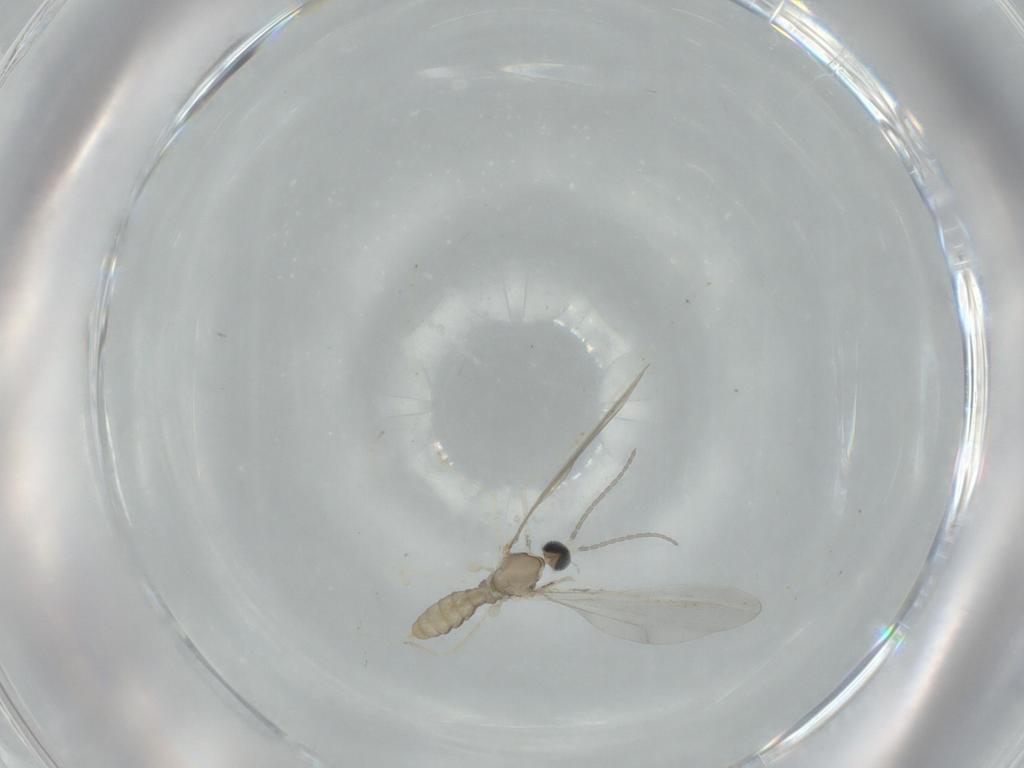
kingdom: Animalia
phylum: Arthropoda
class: Insecta
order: Diptera
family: Cecidomyiidae
